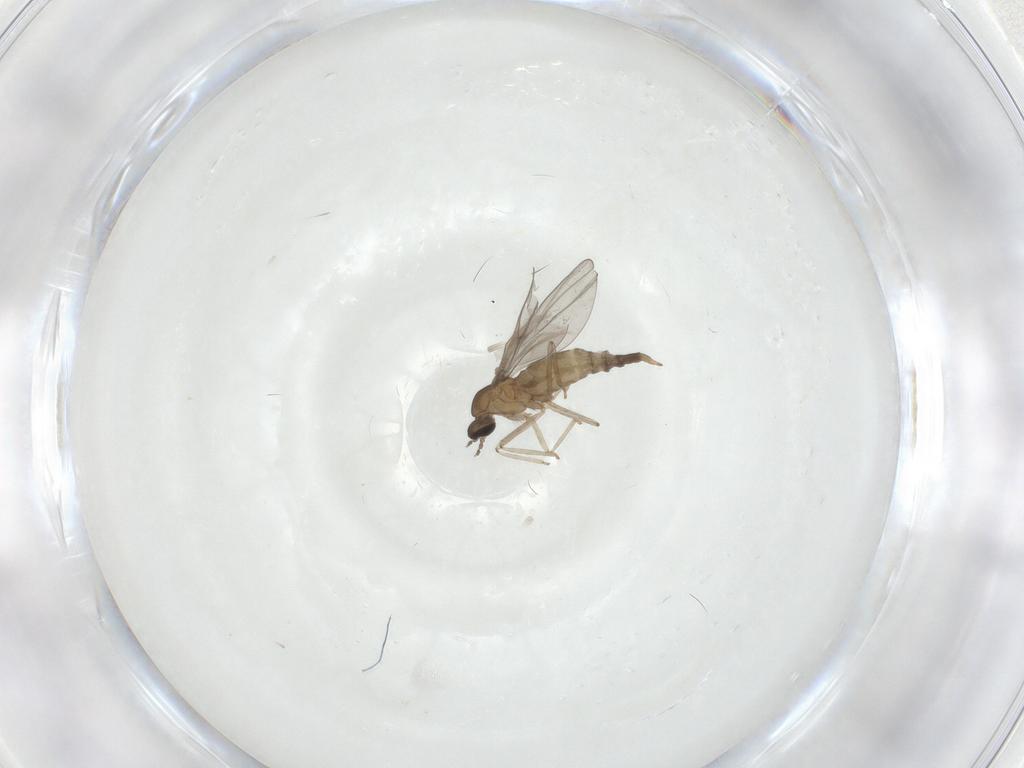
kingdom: Animalia
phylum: Arthropoda
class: Insecta
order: Diptera
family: Cecidomyiidae
